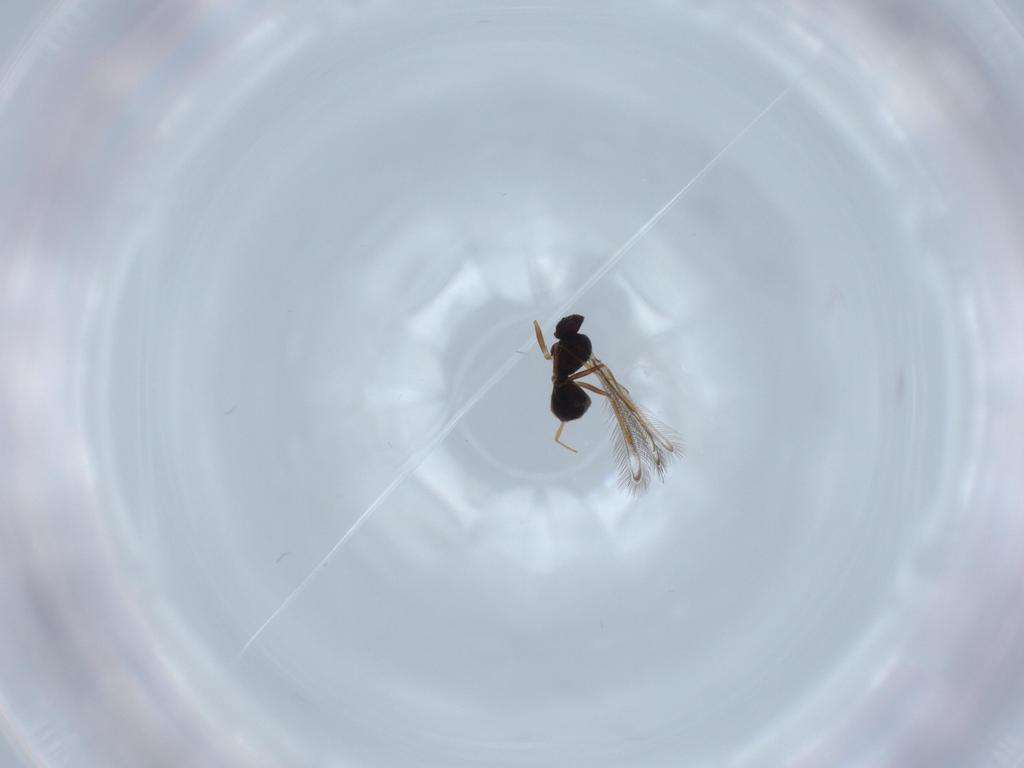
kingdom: Animalia
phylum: Arthropoda
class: Insecta
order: Hymenoptera
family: Mymaridae
